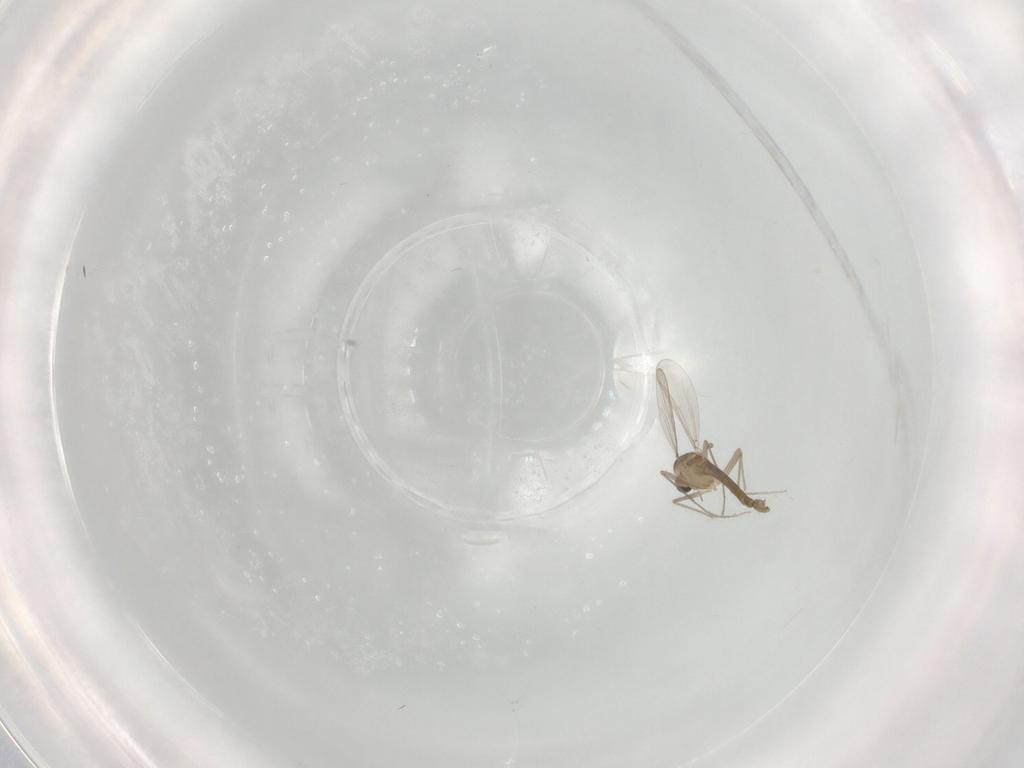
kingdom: Animalia
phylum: Arthropoda
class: Insecta
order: Diptera
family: Chironomidae
